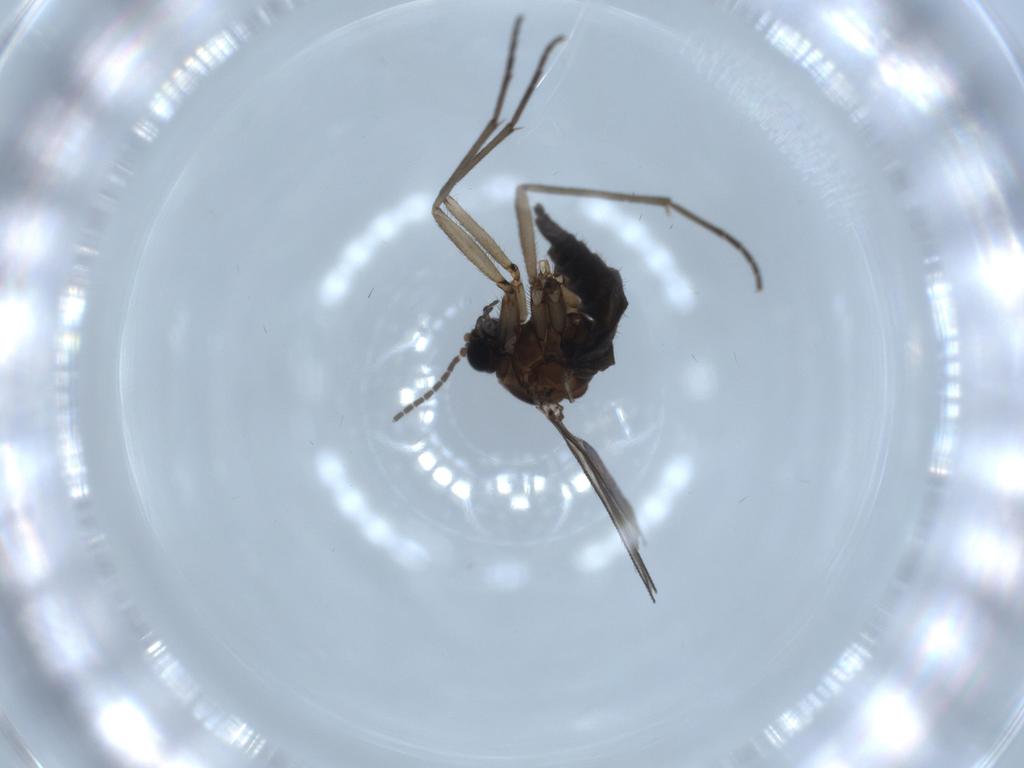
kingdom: Animalia
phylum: Arthropoda
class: Insecta
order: Diptera
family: Sciaridae
